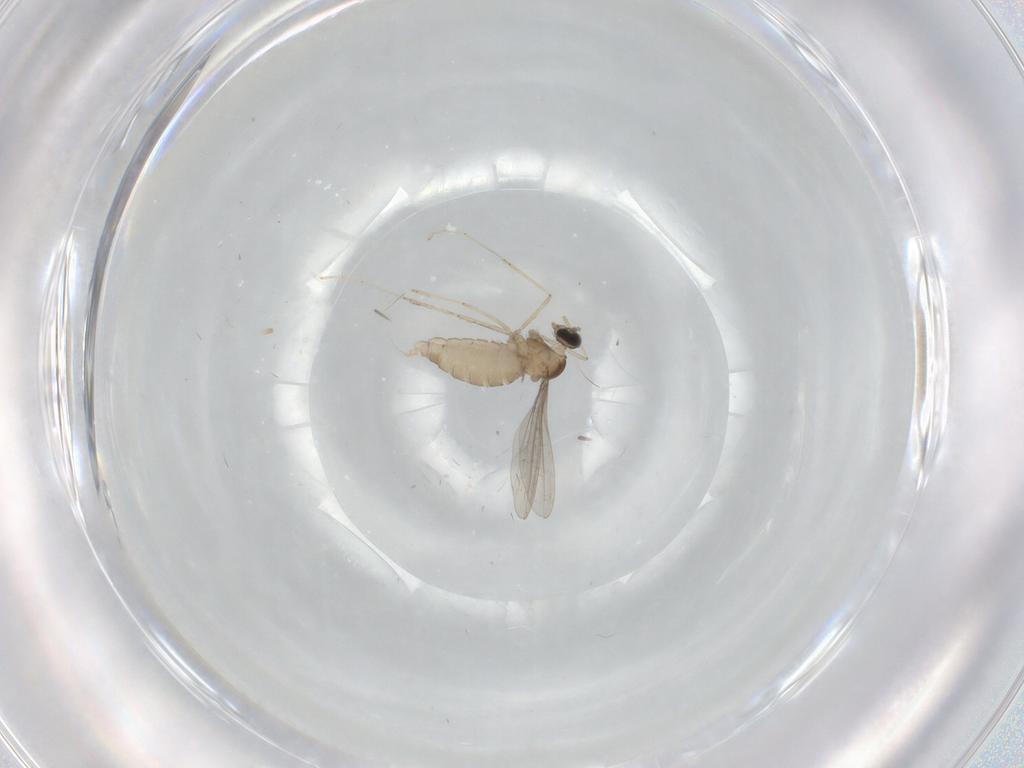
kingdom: Animalia
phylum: Arthropoda
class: Insecta
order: Diptera
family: Cecidomyiidae
